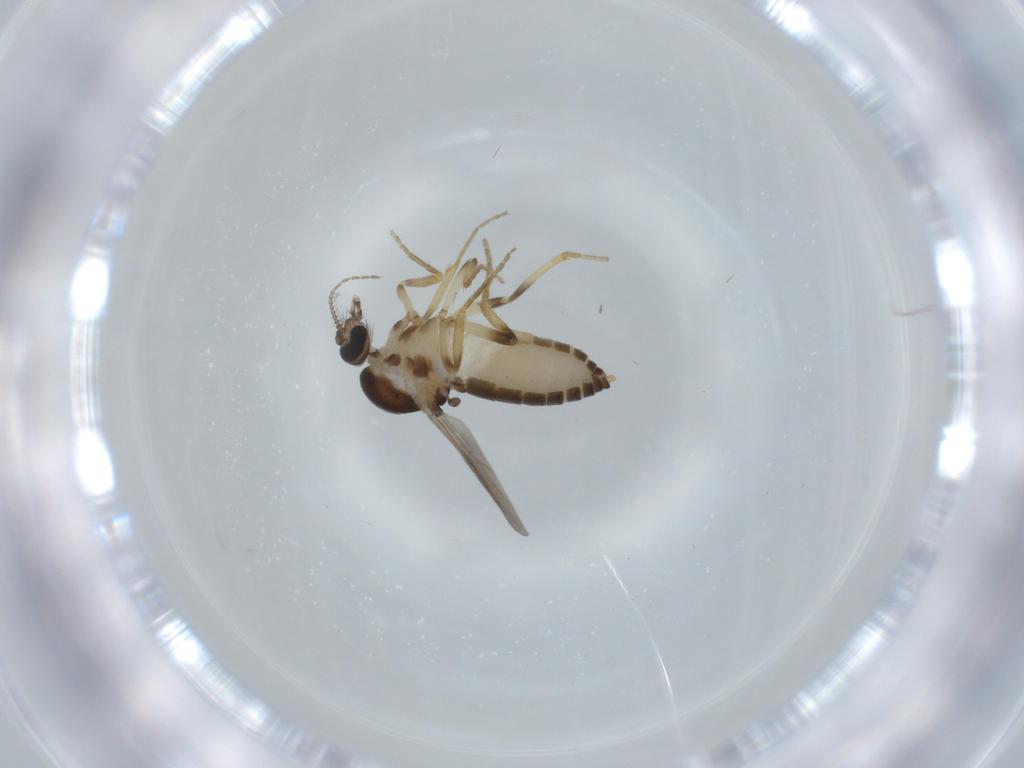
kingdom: Animalia
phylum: Arthropoda
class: Insecta
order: Diptera
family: Ceratopogonidae
